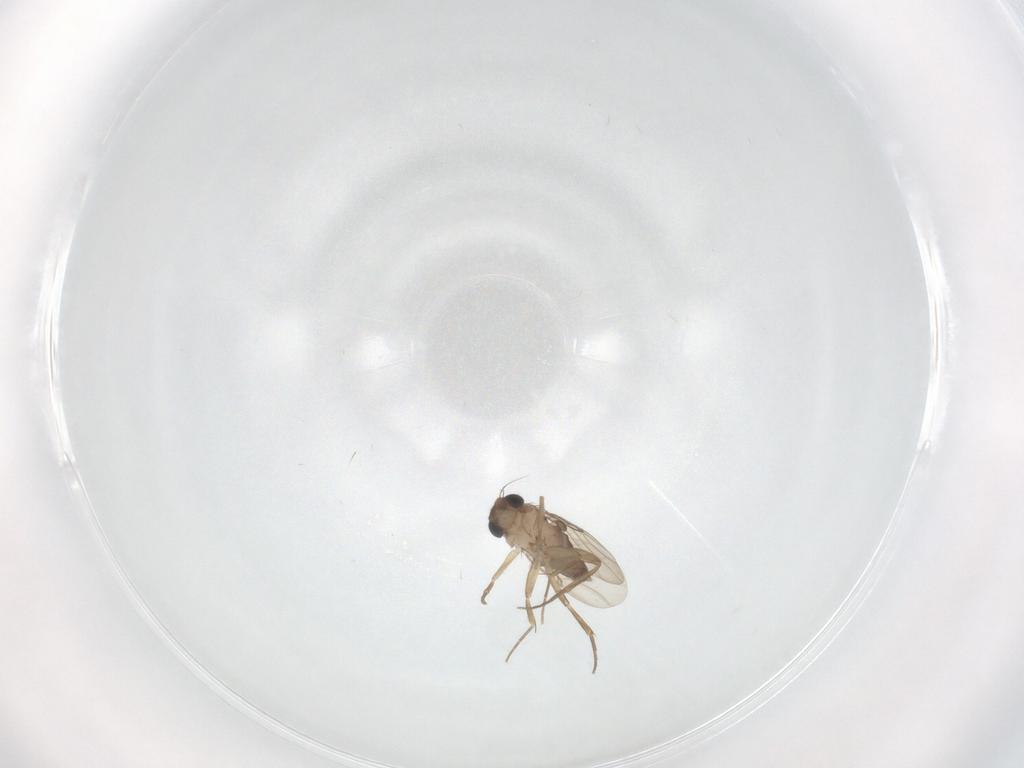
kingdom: Animalia
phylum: Arthropoda
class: Insecta
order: Diptera
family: Phoridae
